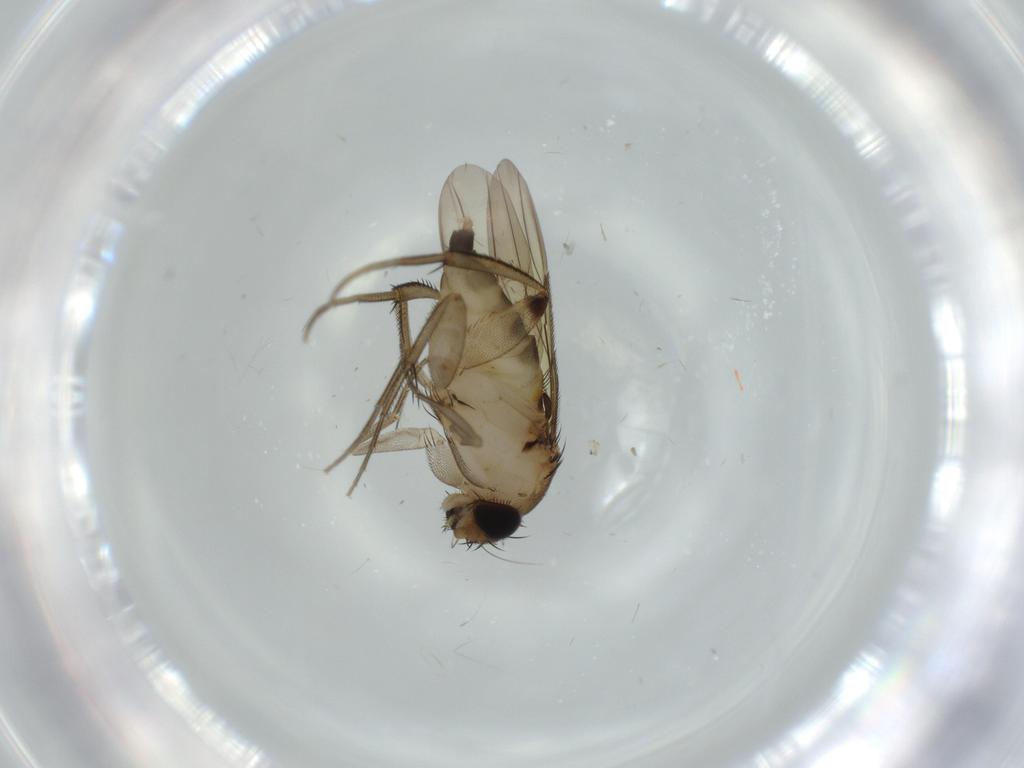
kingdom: Animalia
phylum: Arthropoda
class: Insecta
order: Diptera
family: Phoridae
